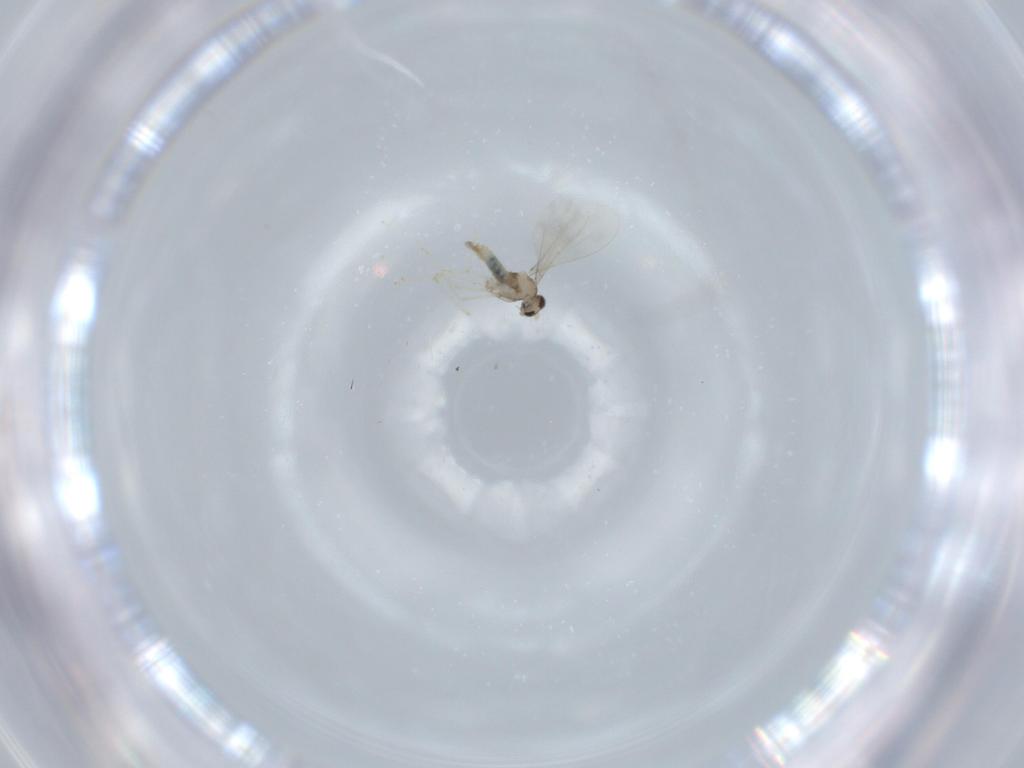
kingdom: Animalia
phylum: Arthropoda
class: Insecta
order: Diptera
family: Cecidomyiidae
